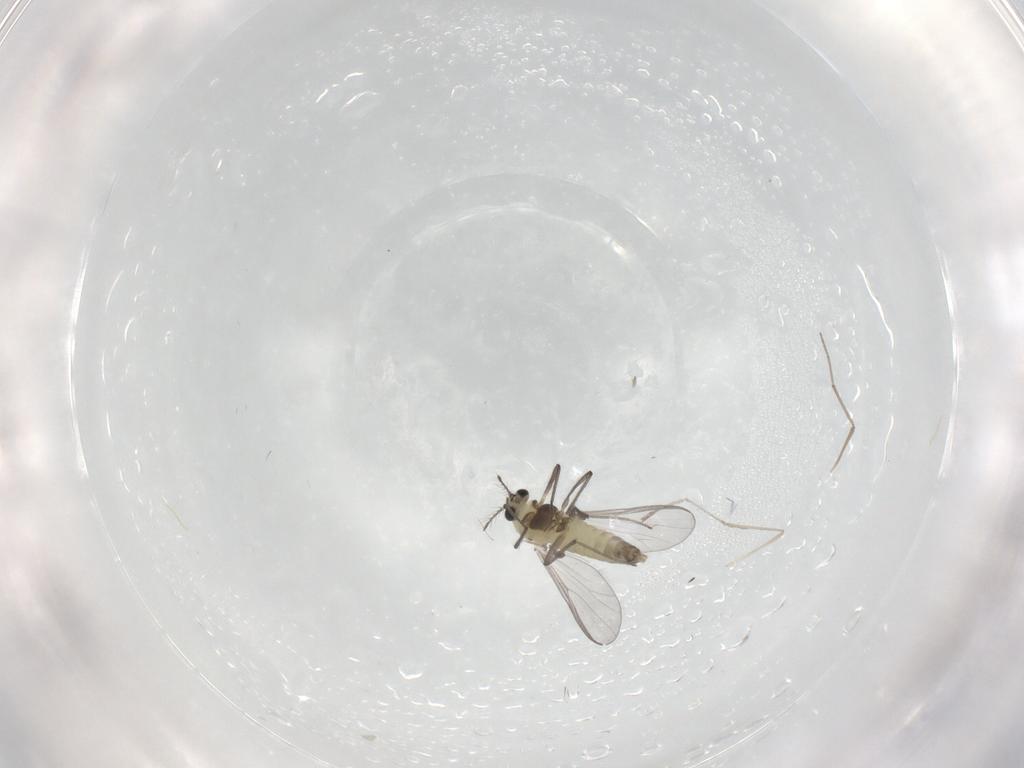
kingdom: Animalia
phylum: Arthropoda
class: Insecta
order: Diptera
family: Chironomidae
